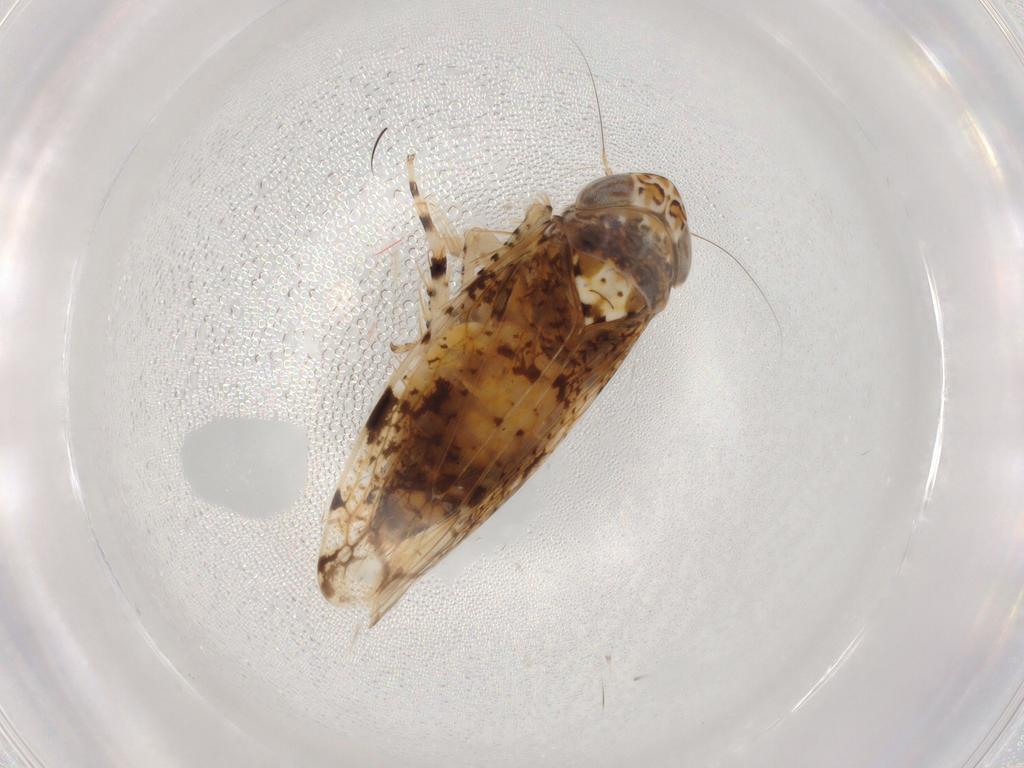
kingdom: Animalia
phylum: Arthropoda
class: Insecta
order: Hemiptera
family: Cicadellidae
